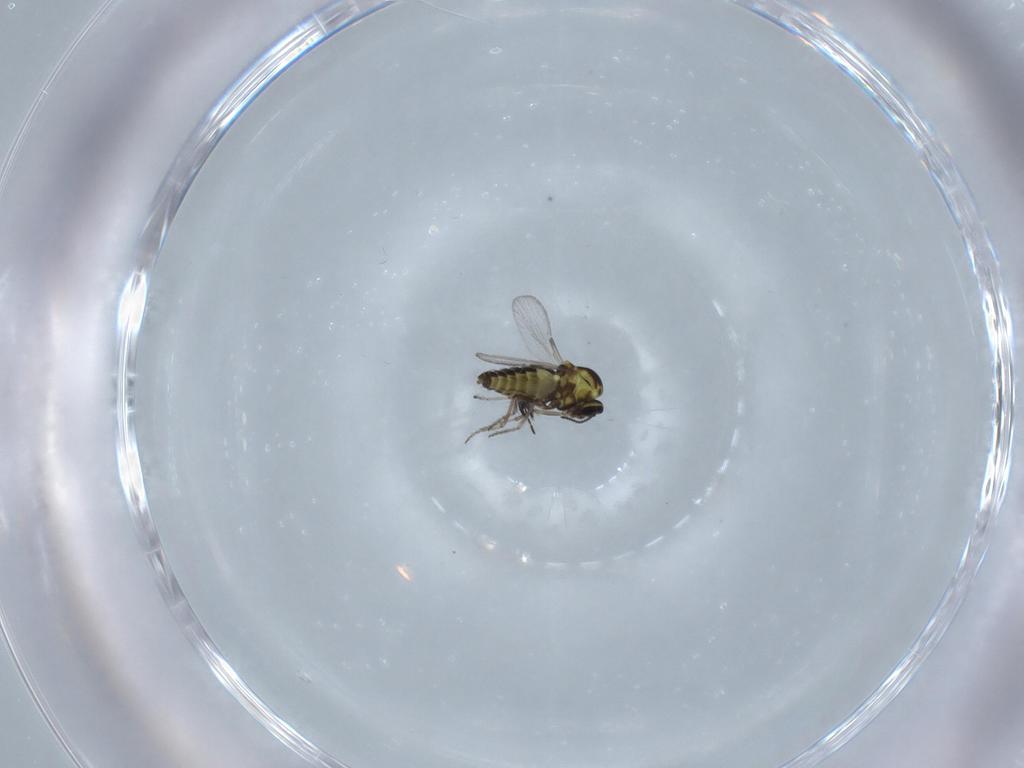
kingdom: Animalia
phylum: Arthropoda
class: Insecta
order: Diptera
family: Ceratopogonidae
